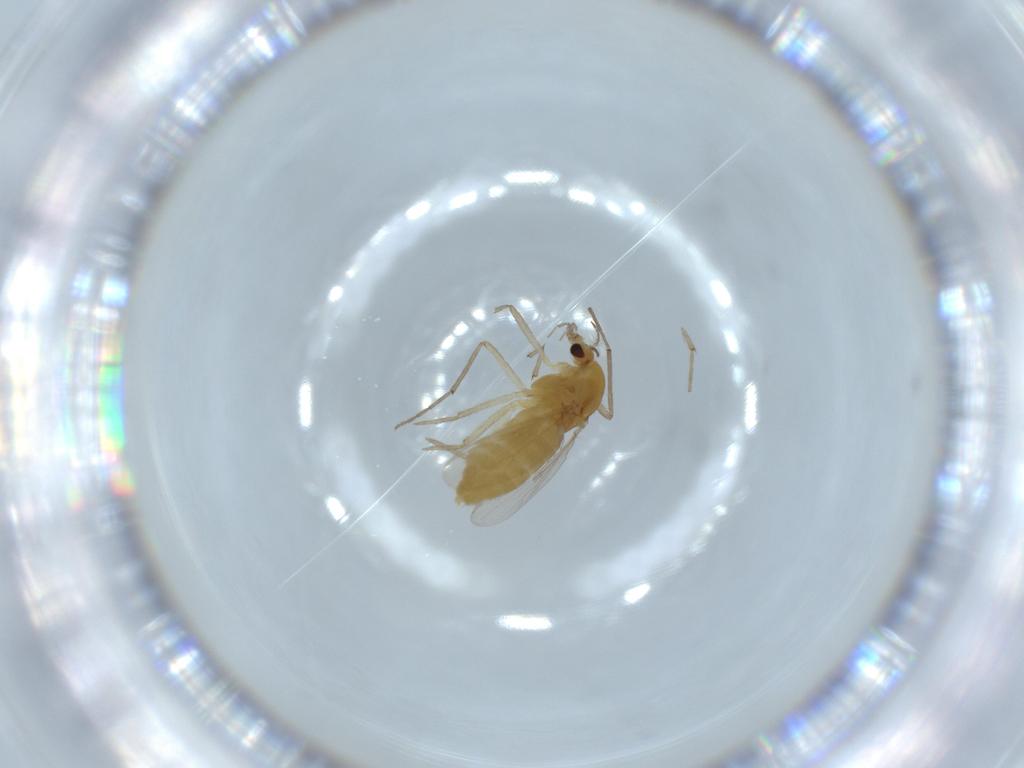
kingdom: Animalia
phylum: Arthropoda
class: Insecta
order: Diptera
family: Chironomidae
